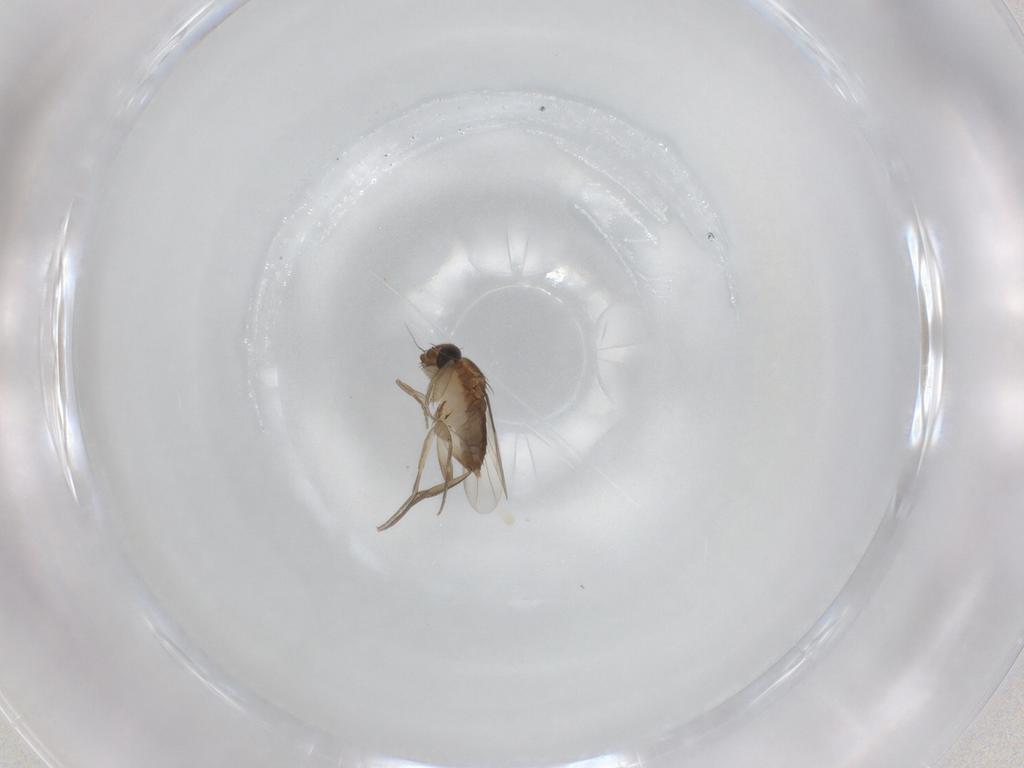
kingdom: Animalia
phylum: Arthropoda
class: Insecta
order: Diptera
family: Phoridae
